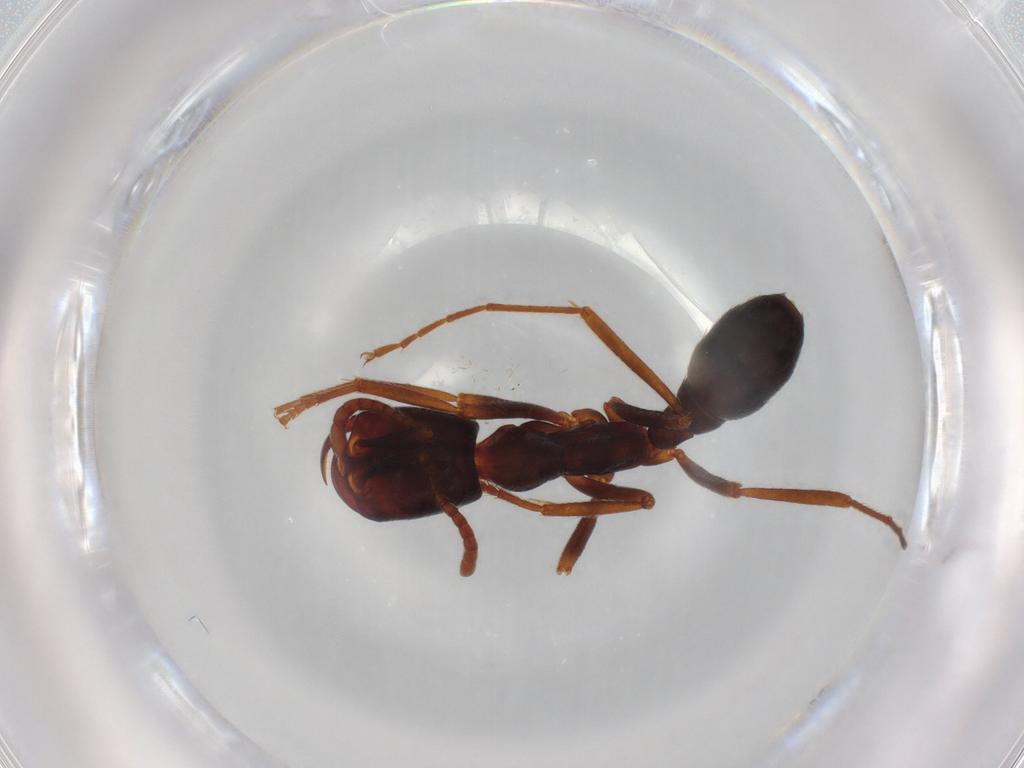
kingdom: Animalia
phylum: Arthropoda
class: Insecta
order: Hymenoptera
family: Formicidae
